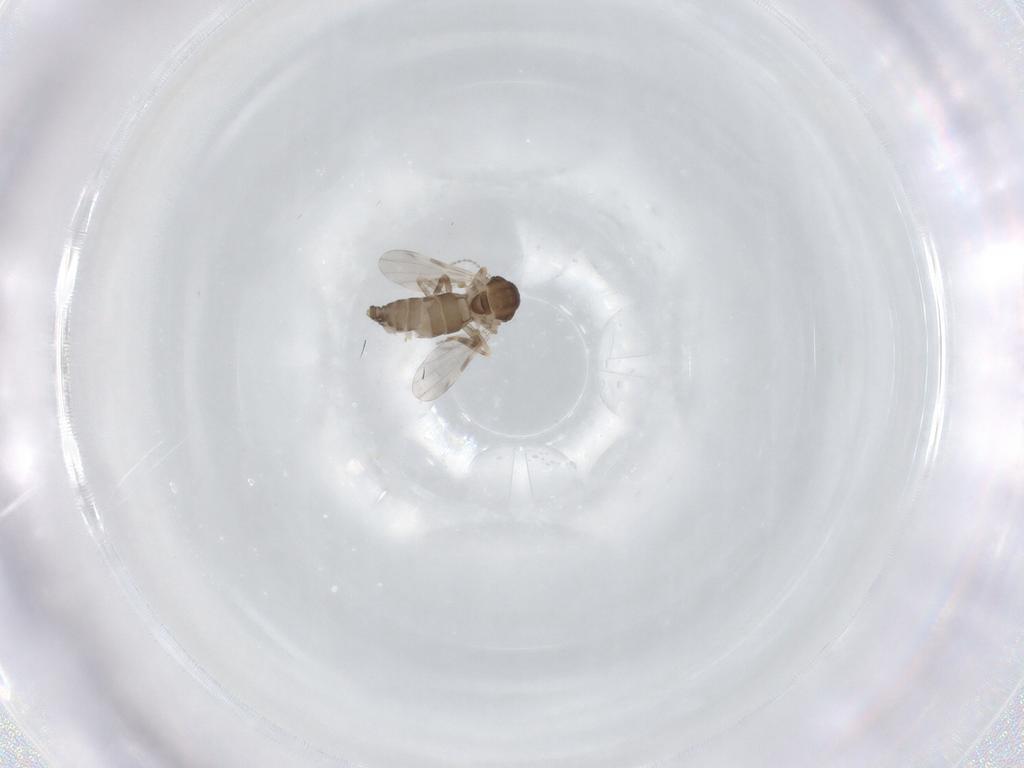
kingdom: Animalia
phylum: Arthropoda
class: Insecta
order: Diptera
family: Ceratopogonidae
